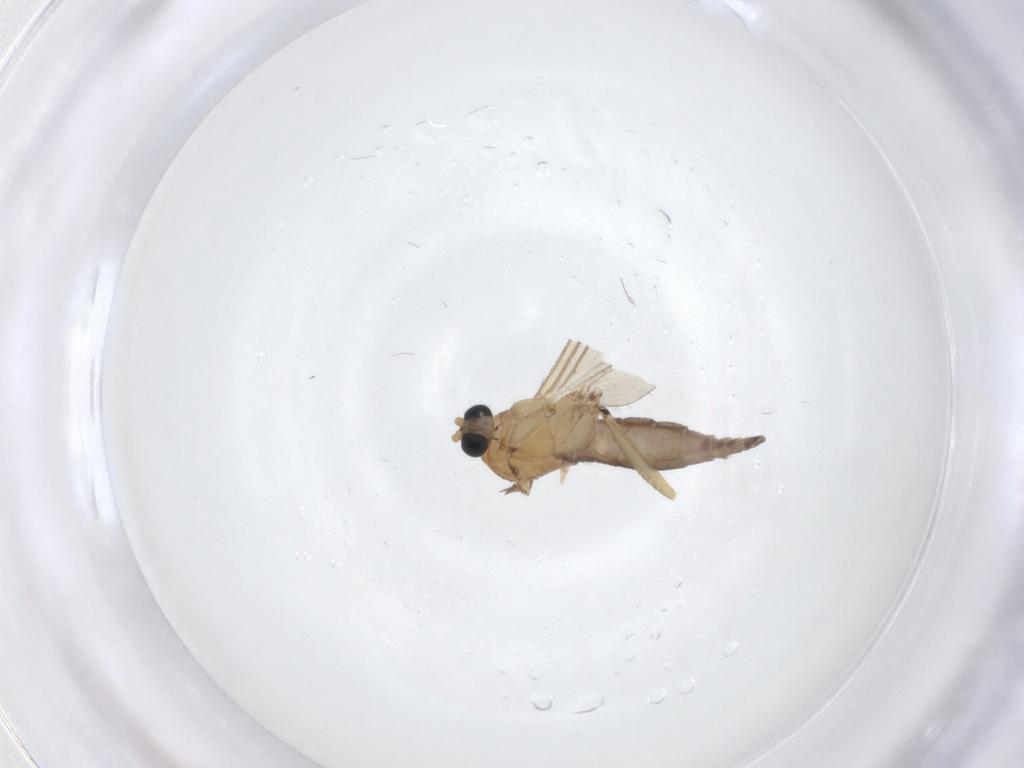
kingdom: Animalia
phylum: Arthropoda
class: Insecta
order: Diptera
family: Sciaridae
